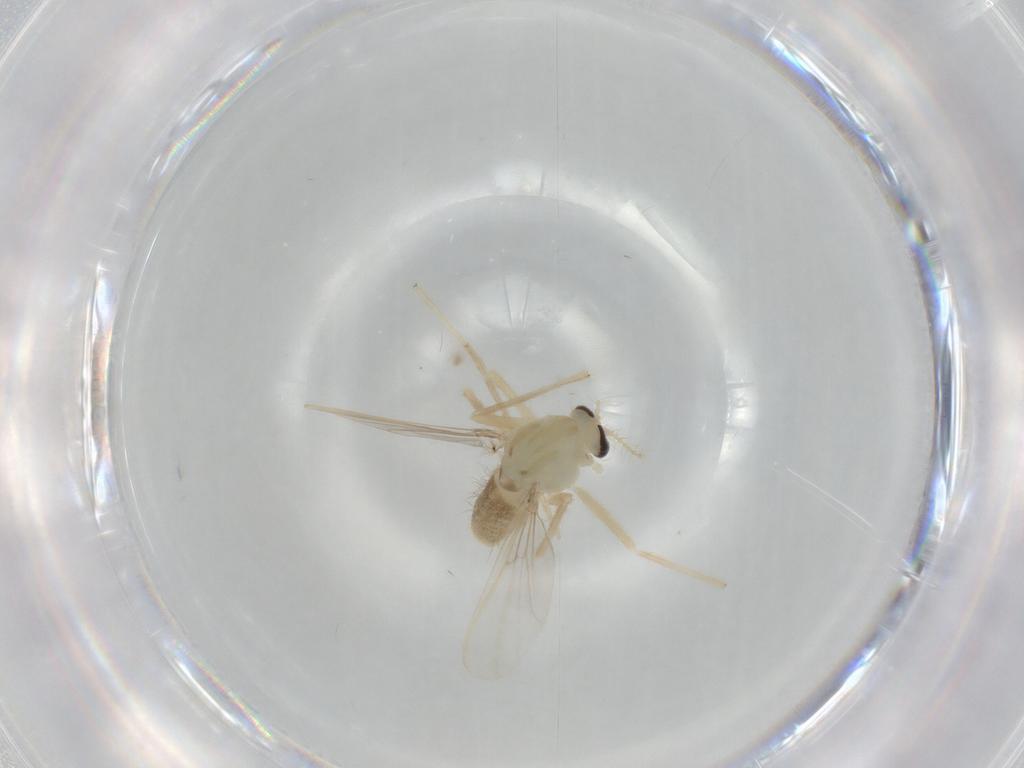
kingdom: Animalia
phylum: Arthropoda
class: Insecta
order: Diptera
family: Chironomidae
